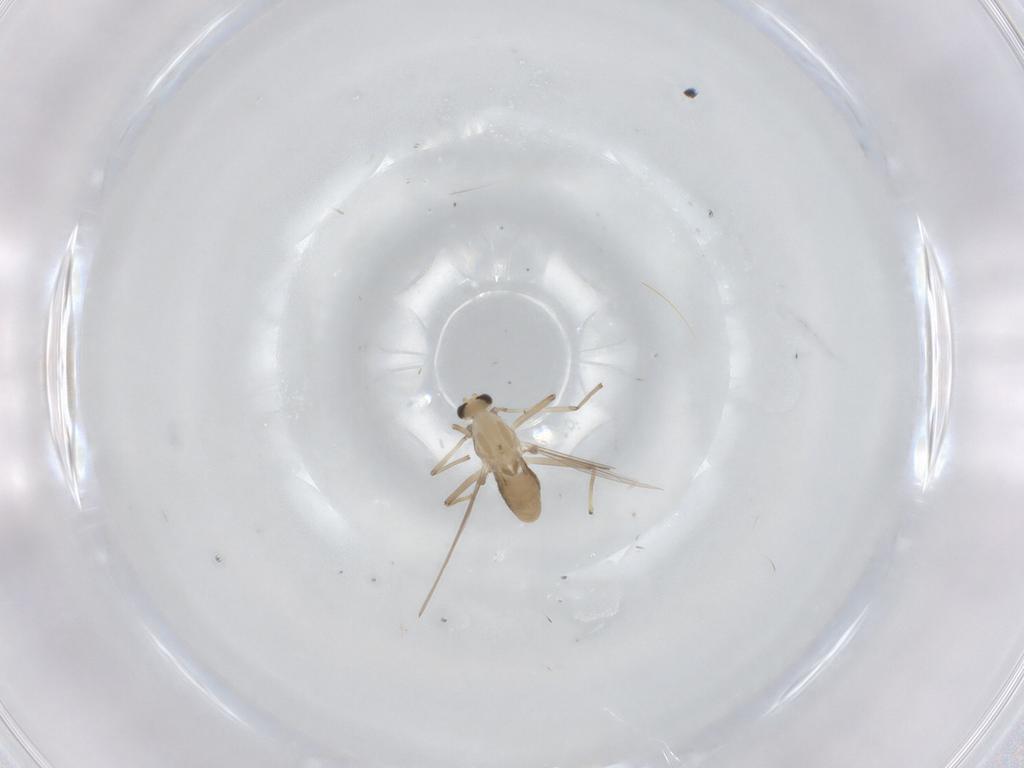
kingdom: Animalia
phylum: Arthropoda
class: Insecta
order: Diptera
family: Chironomidae
